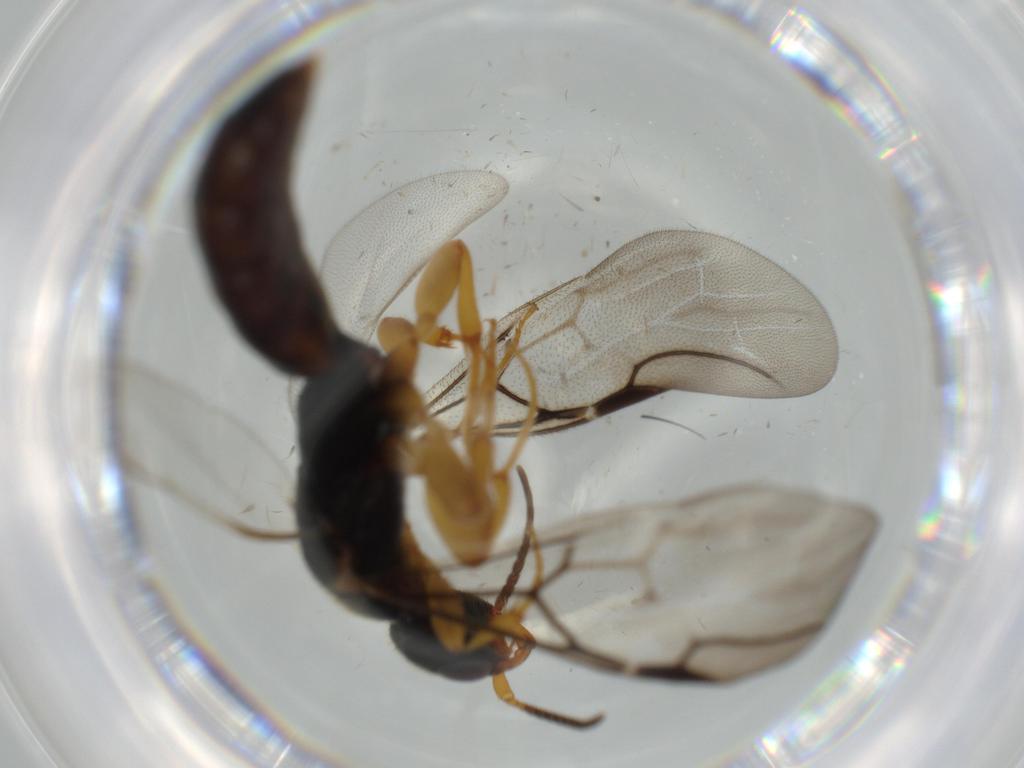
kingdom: Animalia
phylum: Arthropoda
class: Insecta
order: Hymenoptera
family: Bethylidae
